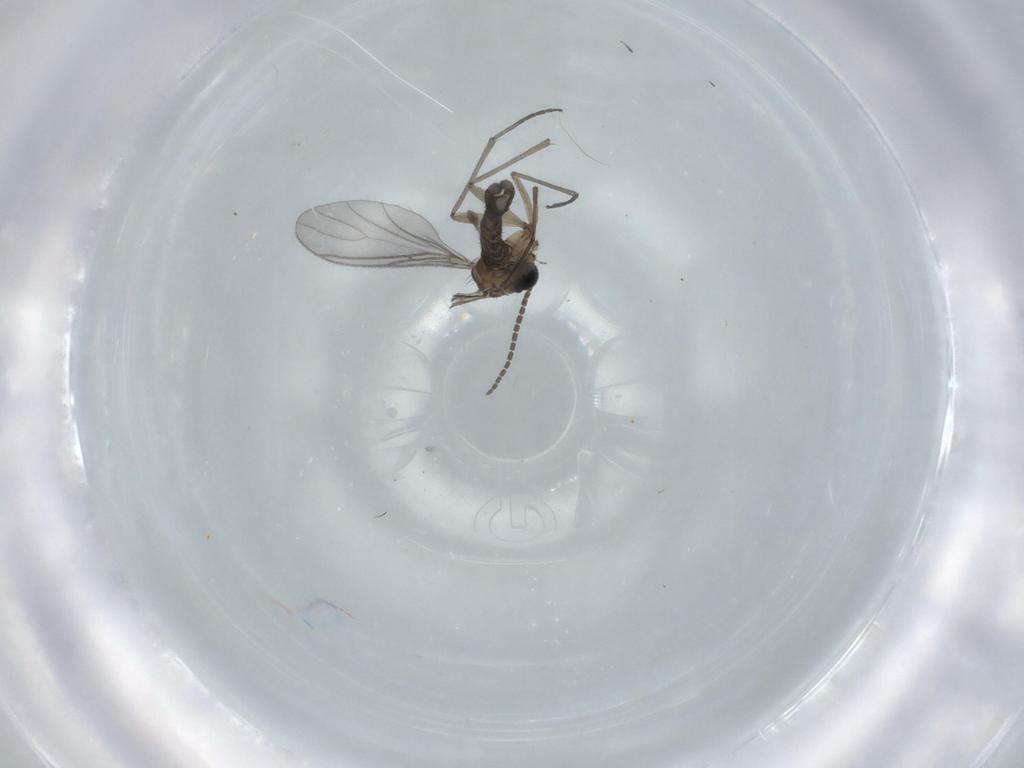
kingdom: Animalia
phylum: Arthropoda
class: Insecta
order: Diptera
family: Sciaridae
